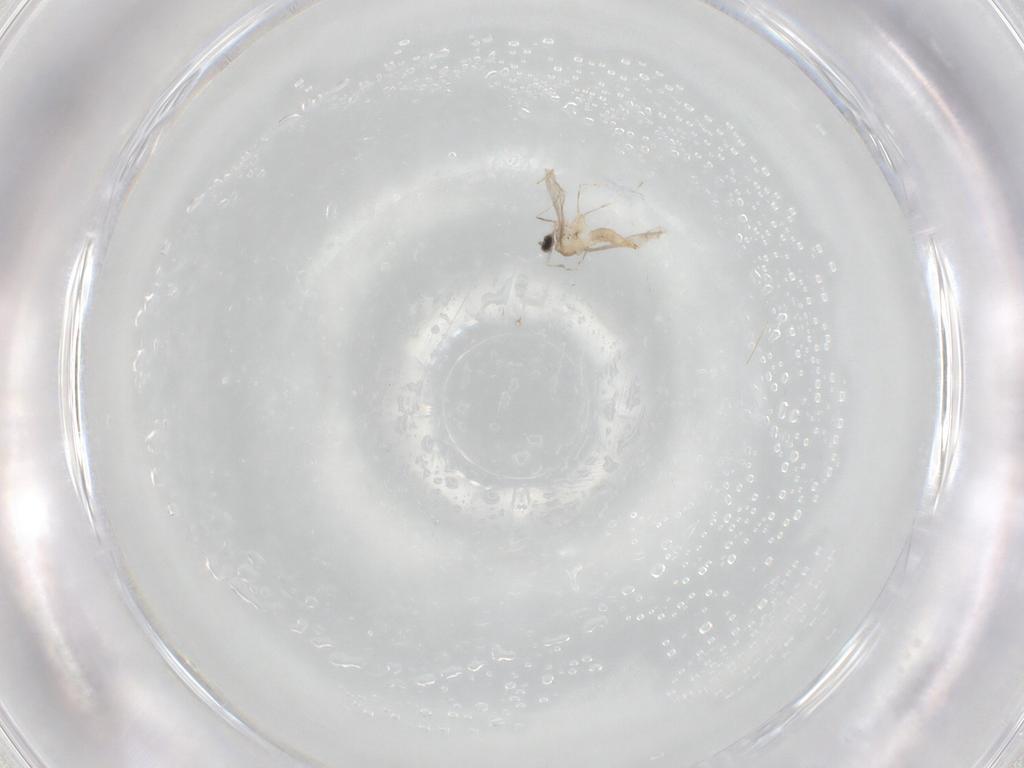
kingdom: Animalia
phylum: Arthropoda
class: Insecta
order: Diptera
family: Cecidomyiidae
